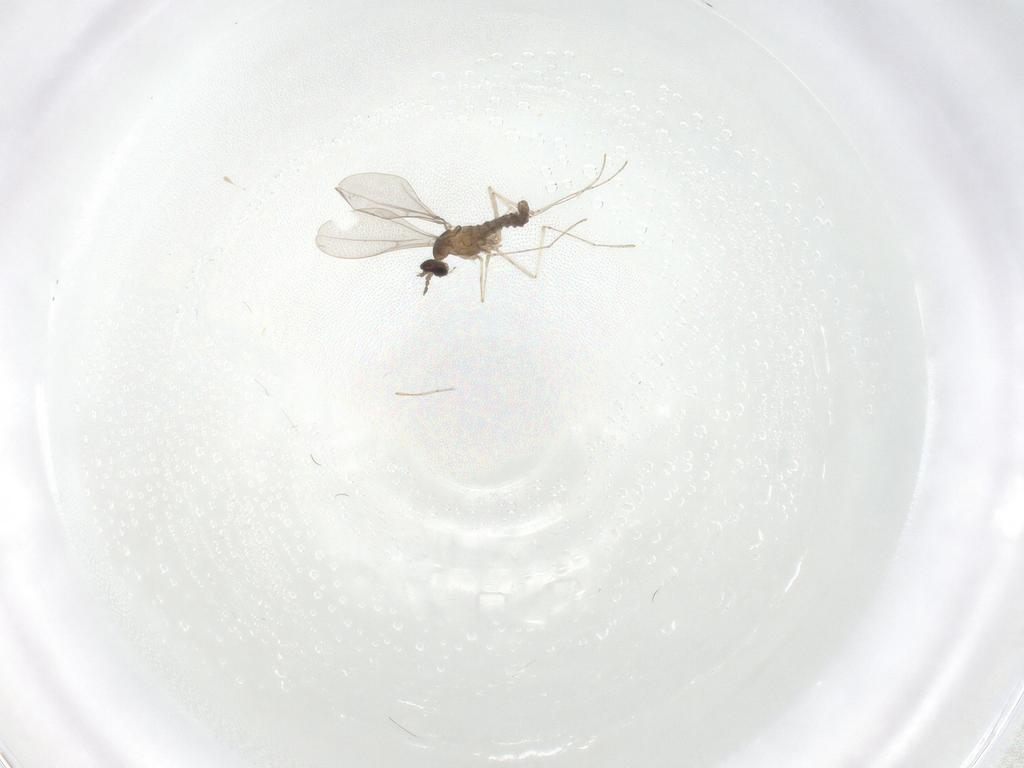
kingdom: Animalia
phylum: Arthropoda
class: Insecta
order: Diptera
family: Cecidomyiidae
